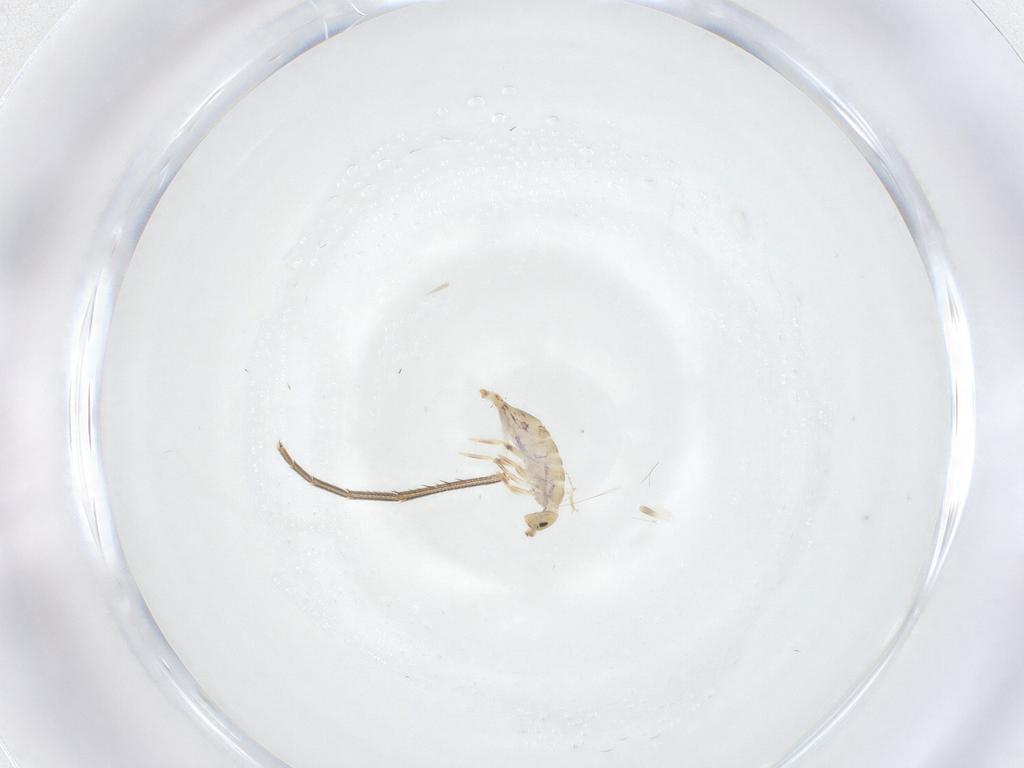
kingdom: Animalia
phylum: Arthropoda
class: Collembola
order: Entomobryomorpha
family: Entomobryidae
